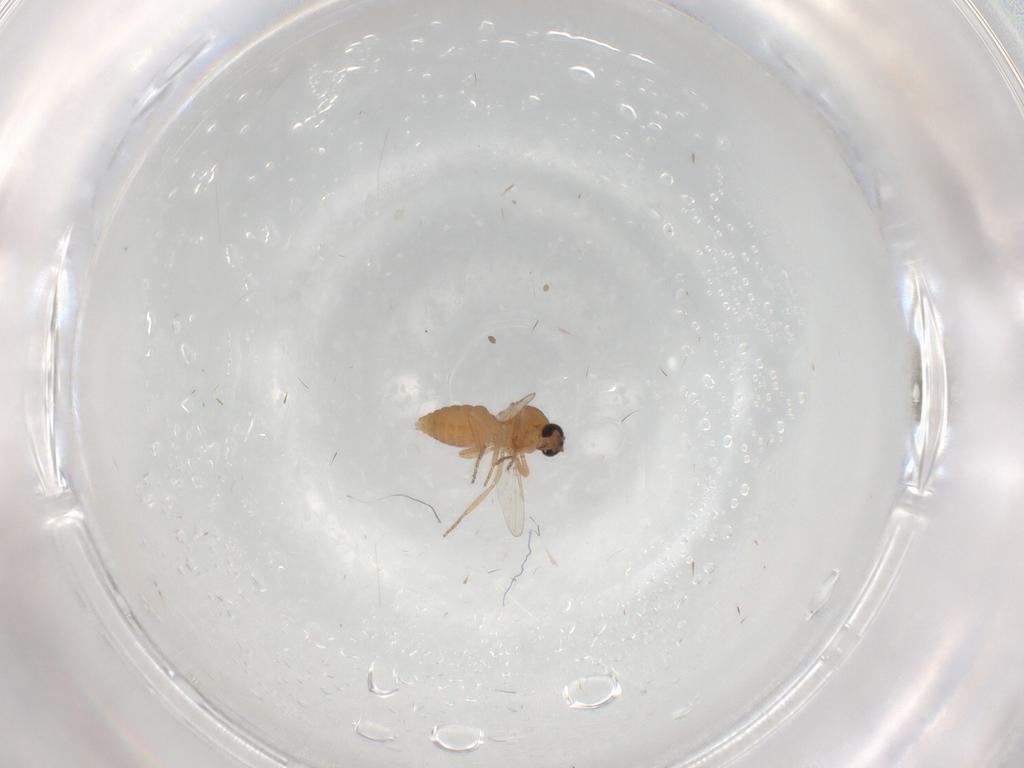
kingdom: Animalia
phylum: Arthropoda
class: Insecta
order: Diptera
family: Ceratopogonidae
